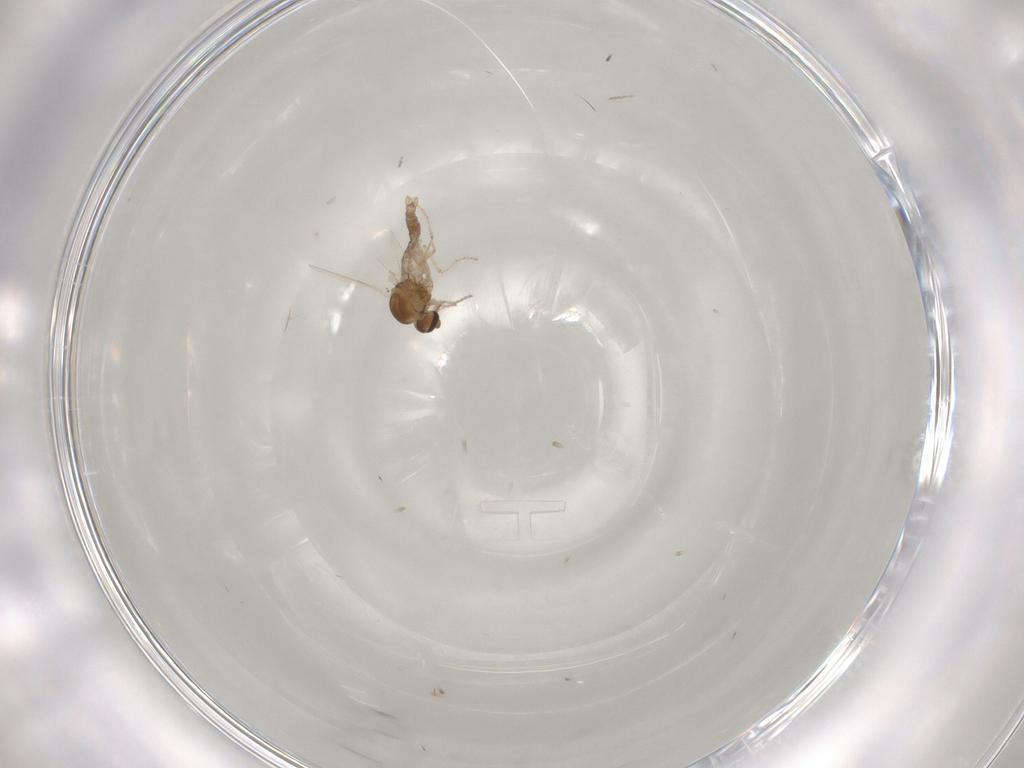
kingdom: Animalia
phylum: Arthropoda
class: Insecta
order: Diptera
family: Ceratopogonidae
